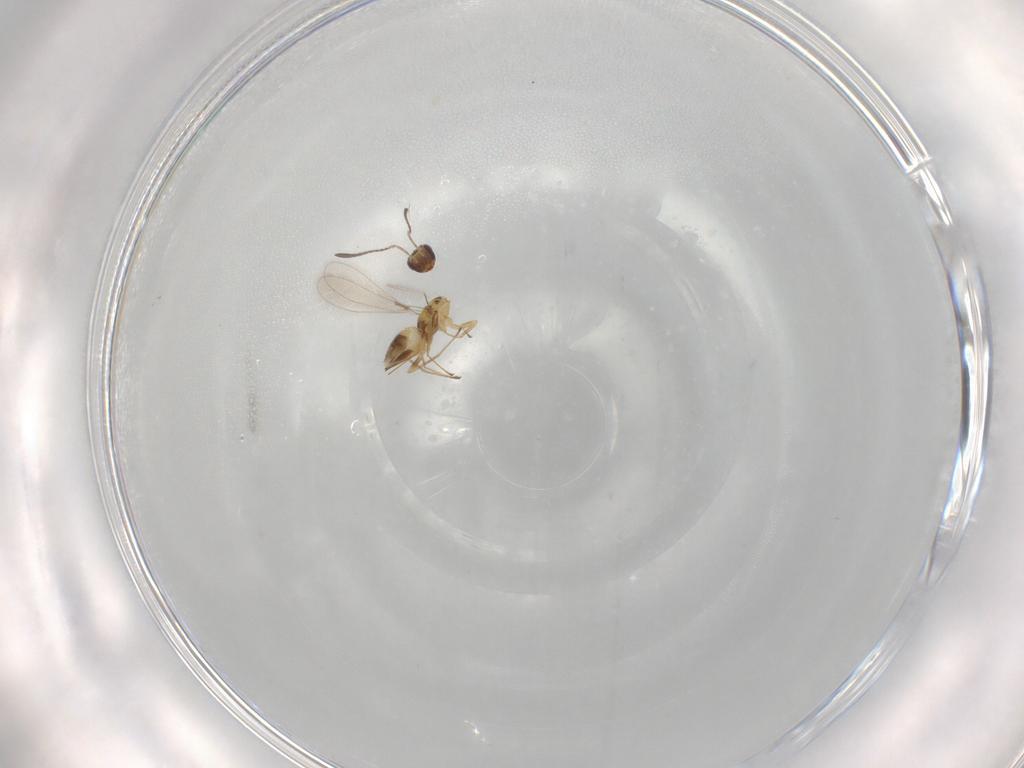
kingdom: Animalia
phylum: Arthropoda
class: Insecta
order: Hymenoptera
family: Mymaridae
